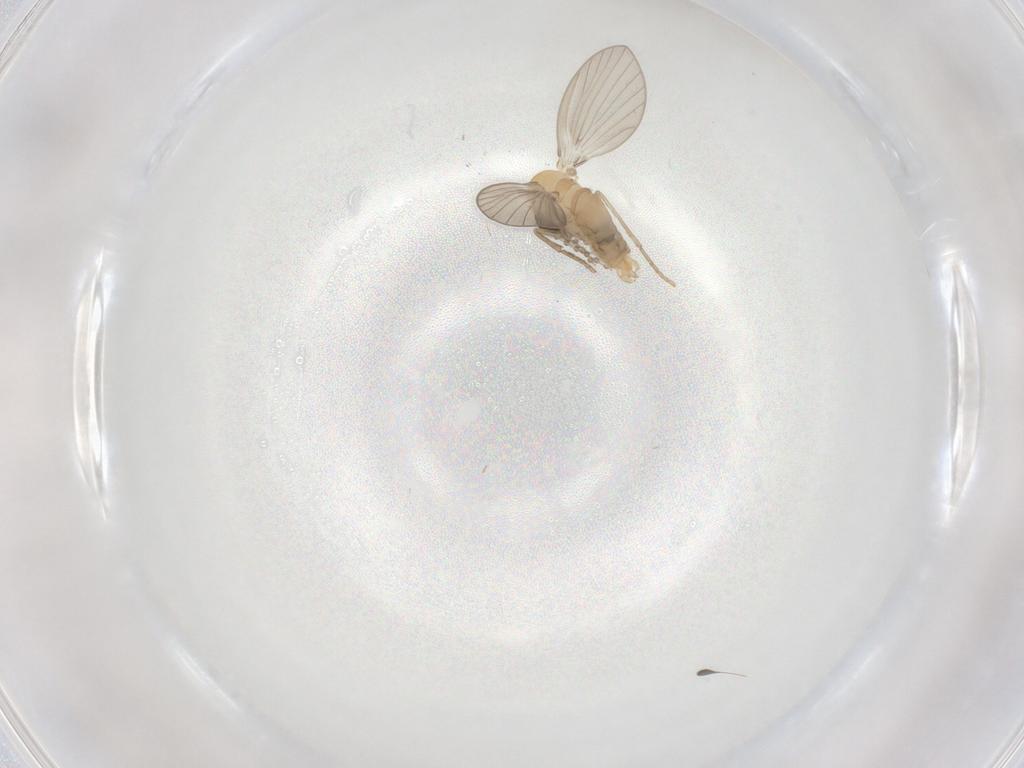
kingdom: Animalia
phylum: Arthropoda
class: Insecta
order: Diptera
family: Psychodidae
